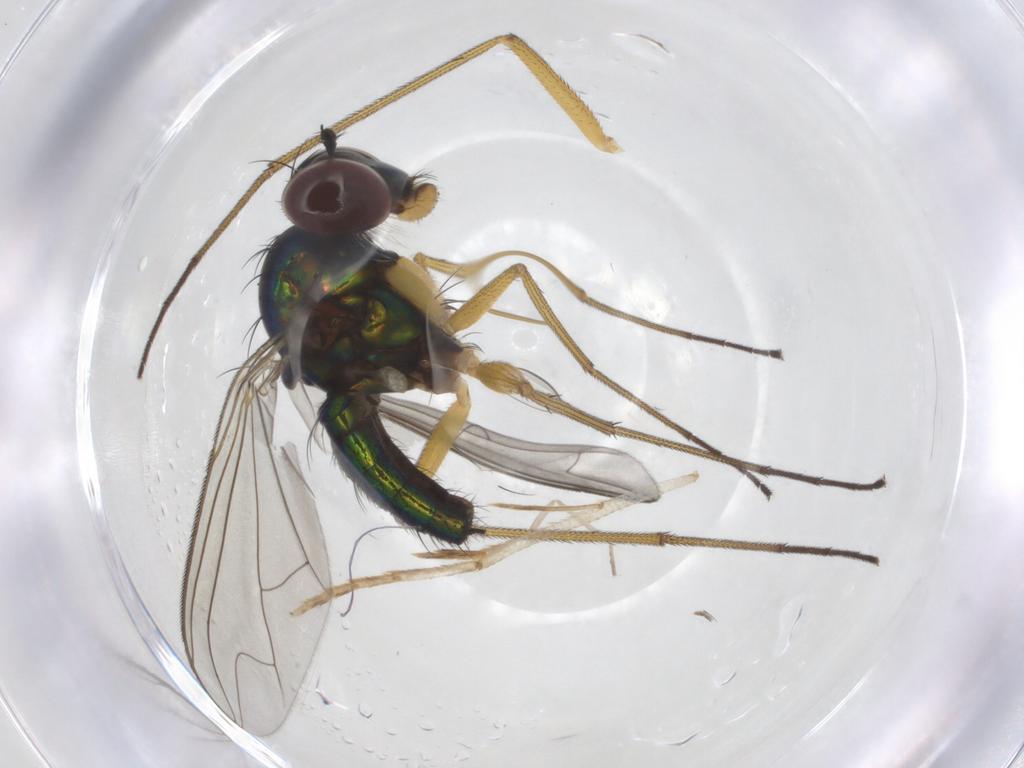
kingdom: Animalia
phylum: Arthropoda
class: Insecta
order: Diptera
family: Dolichopodidae
